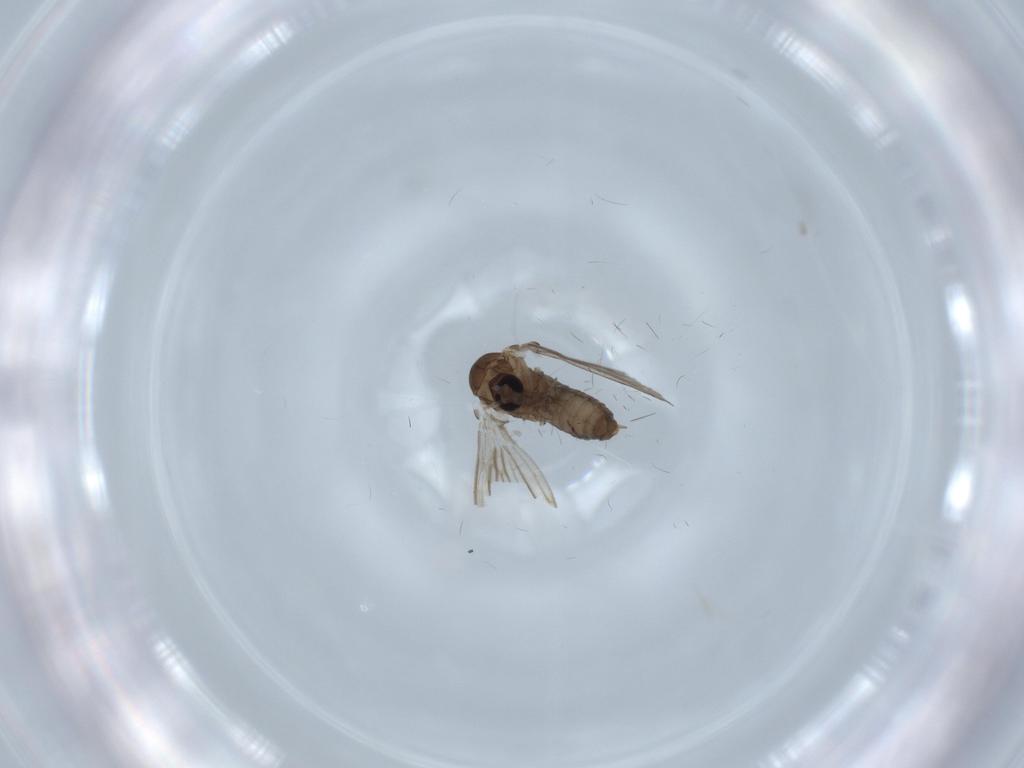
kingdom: Animalia
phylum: Arthropoda
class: Insecta
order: Diptera
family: Psychodidae
